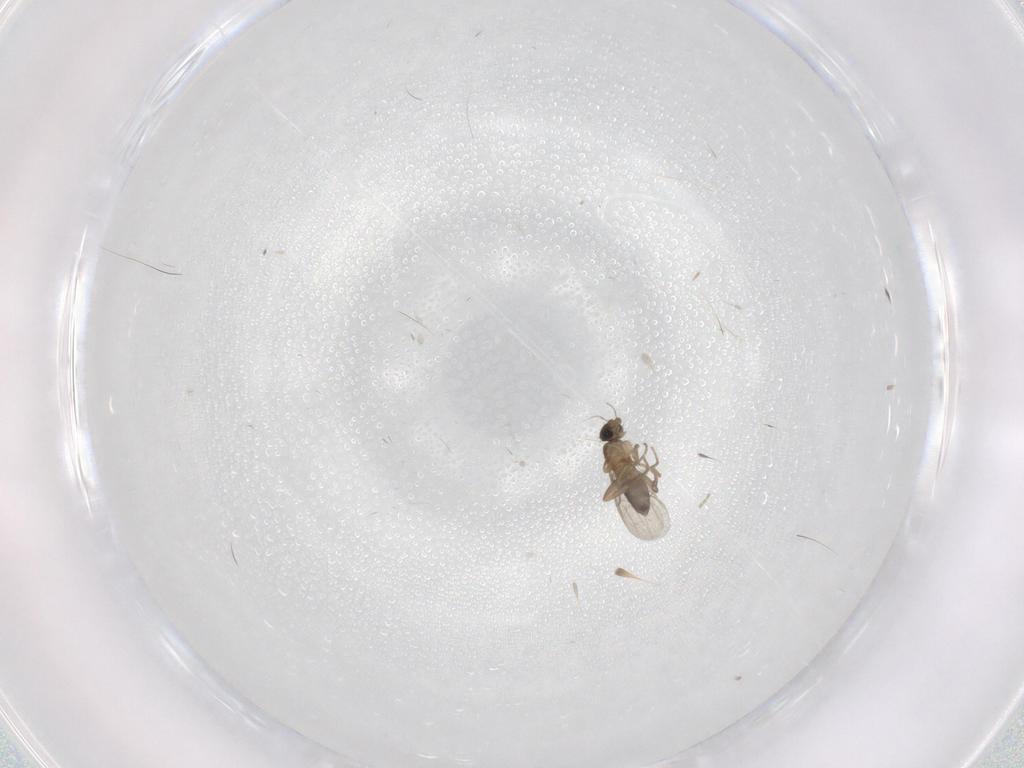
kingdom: Animalia
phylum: Arthropoda
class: Insecta
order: Diptera
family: Phoridae
